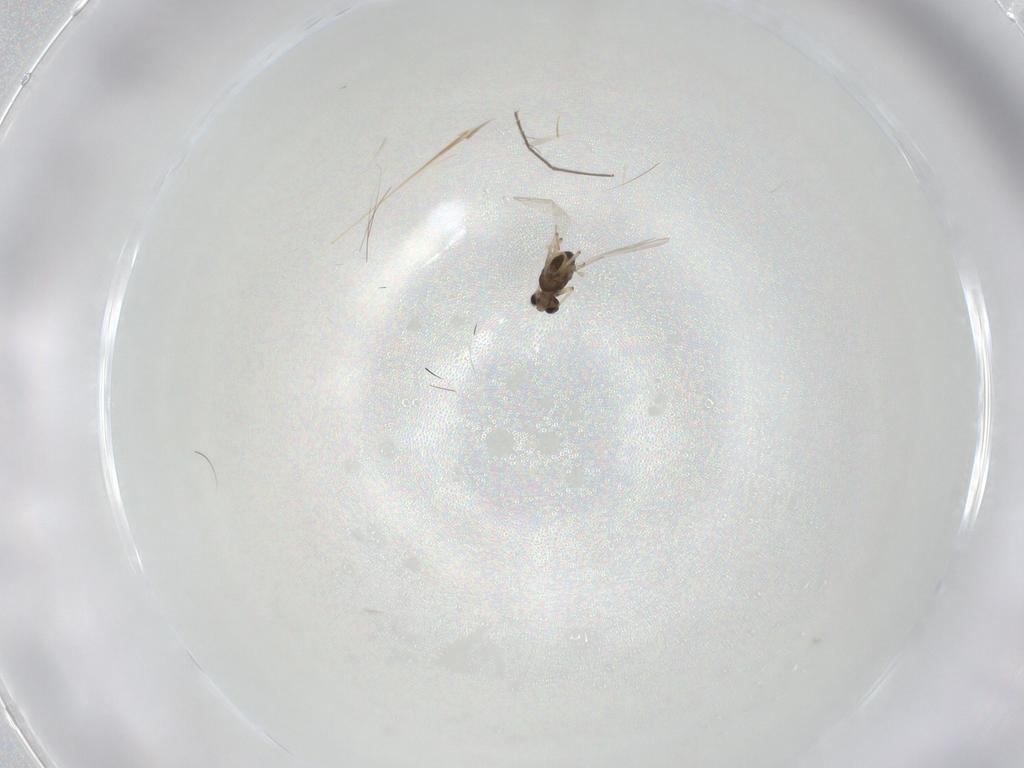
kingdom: Animalia
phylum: Arthropoda
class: Insecta
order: Diptera
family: Chironomidae
